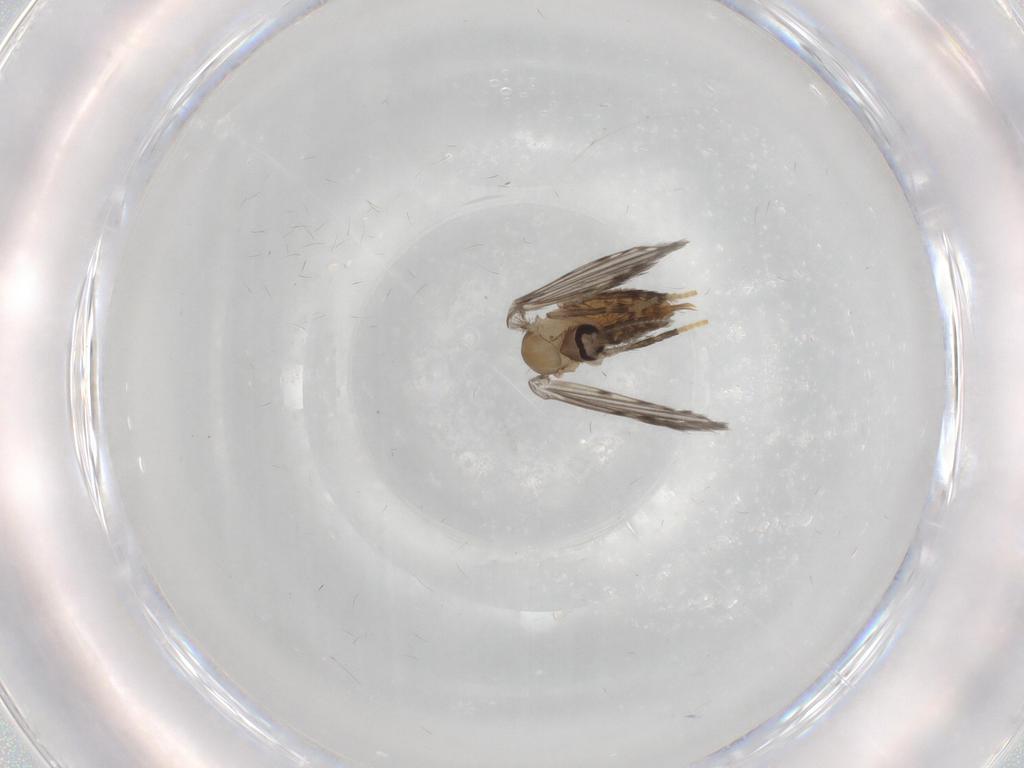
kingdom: Animalia
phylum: Arthropoda
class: Insecta
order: Diptera
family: Psychodidae
